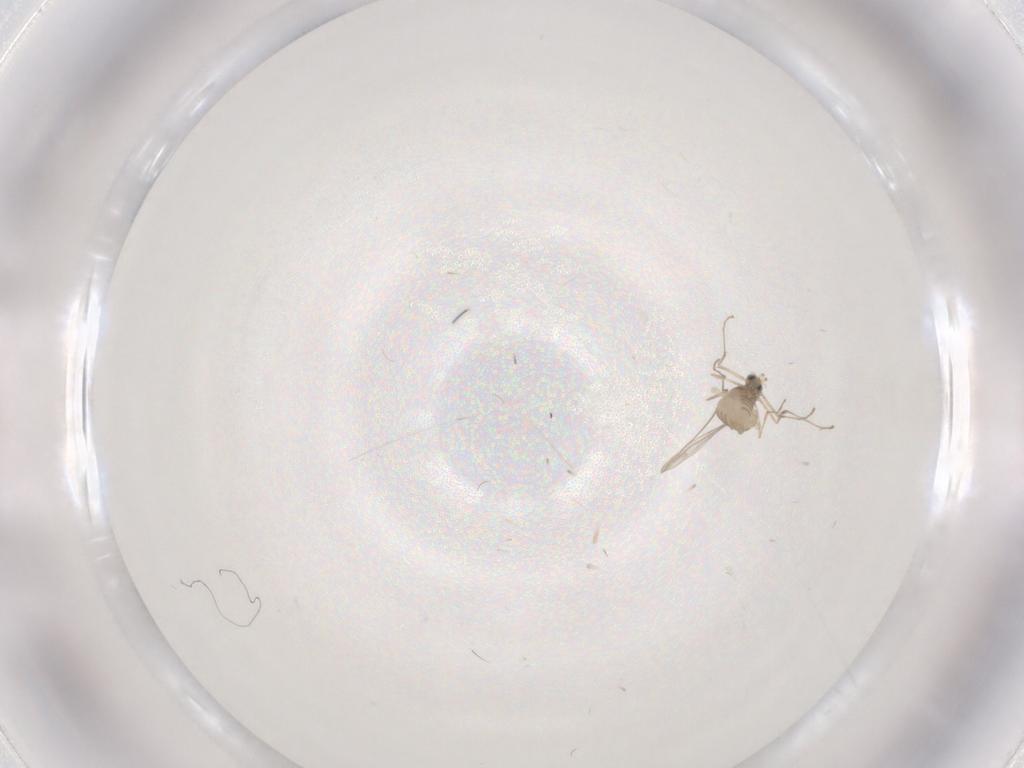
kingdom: Animalia
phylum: Arthropoda
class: Insecta
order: Diptera
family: Cecidomyiidae
